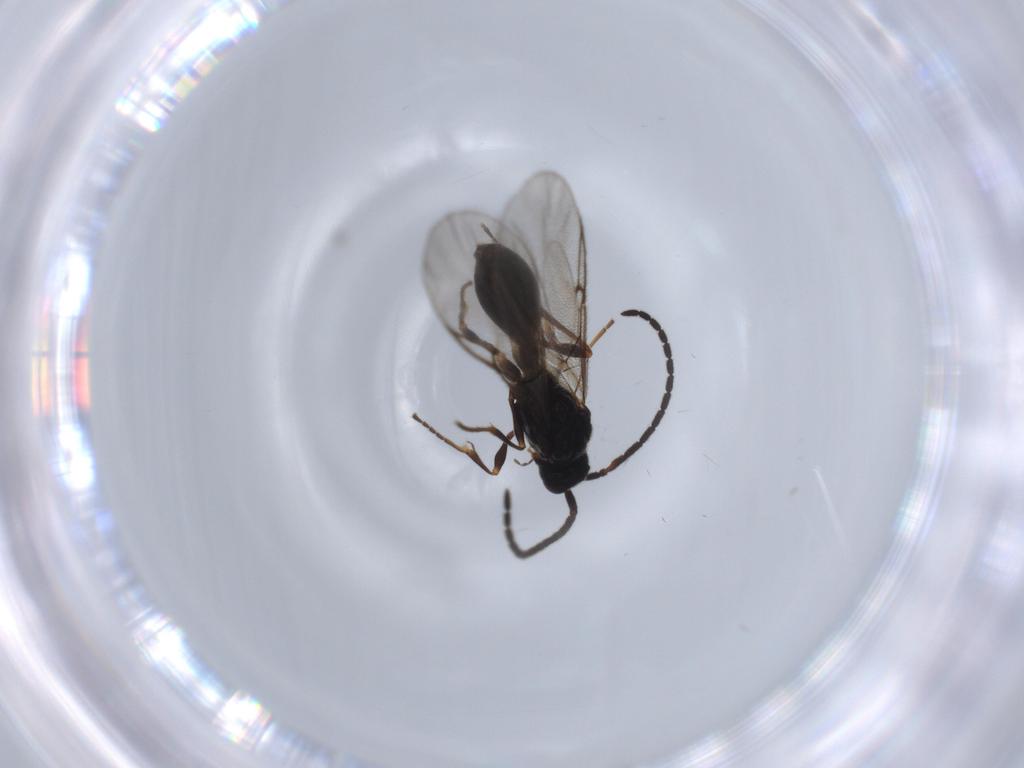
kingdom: Animalia
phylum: Arthropoda
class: Insecta
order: Hymenoptera
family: Diapriidae
